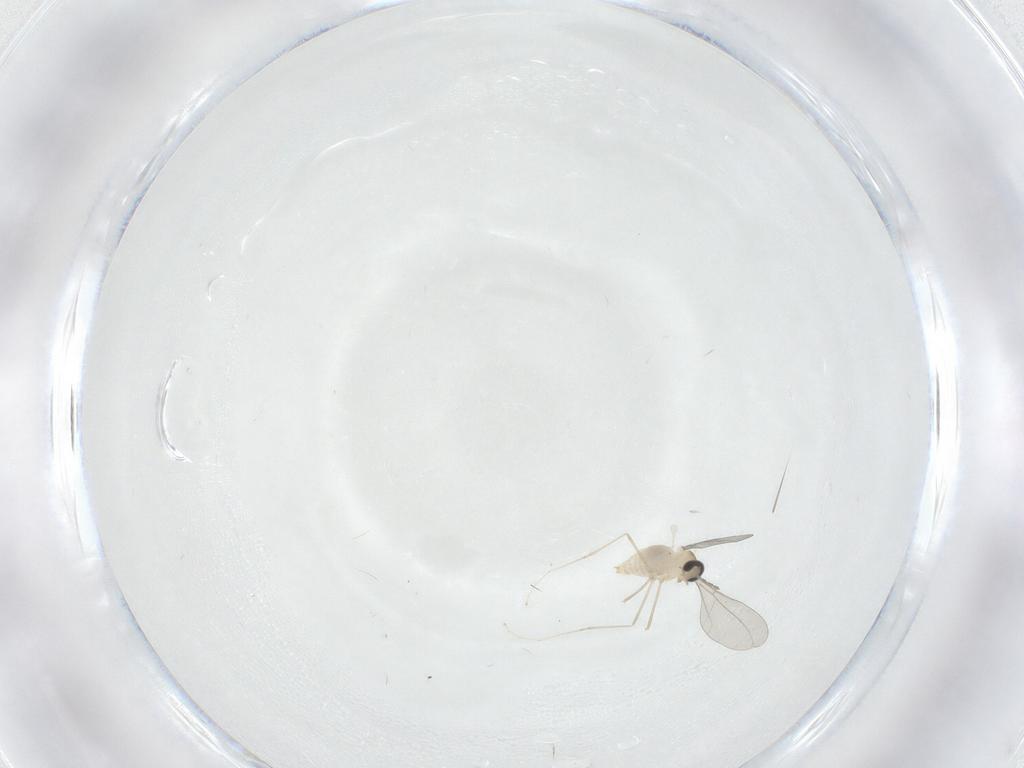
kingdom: Animalia
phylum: Arthropoda
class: Insecta
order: Diptera
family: Cecidomyiidae
